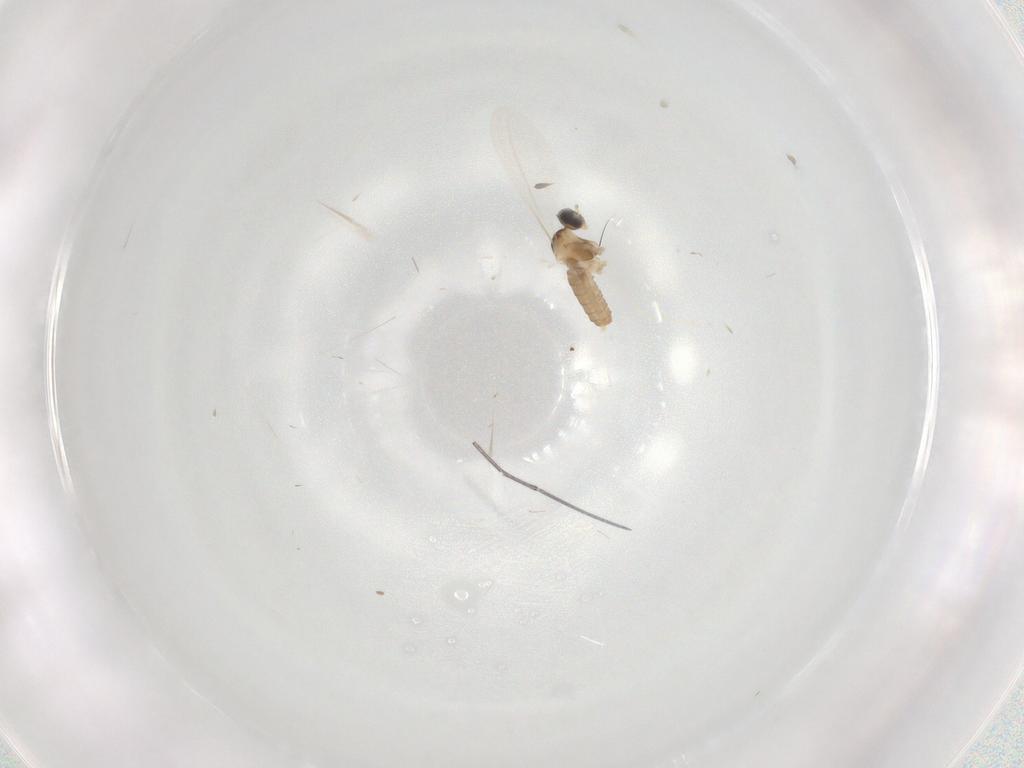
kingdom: Animalia
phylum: Arthropoda
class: Insecta
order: Diptera
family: Cecidomyiidae
